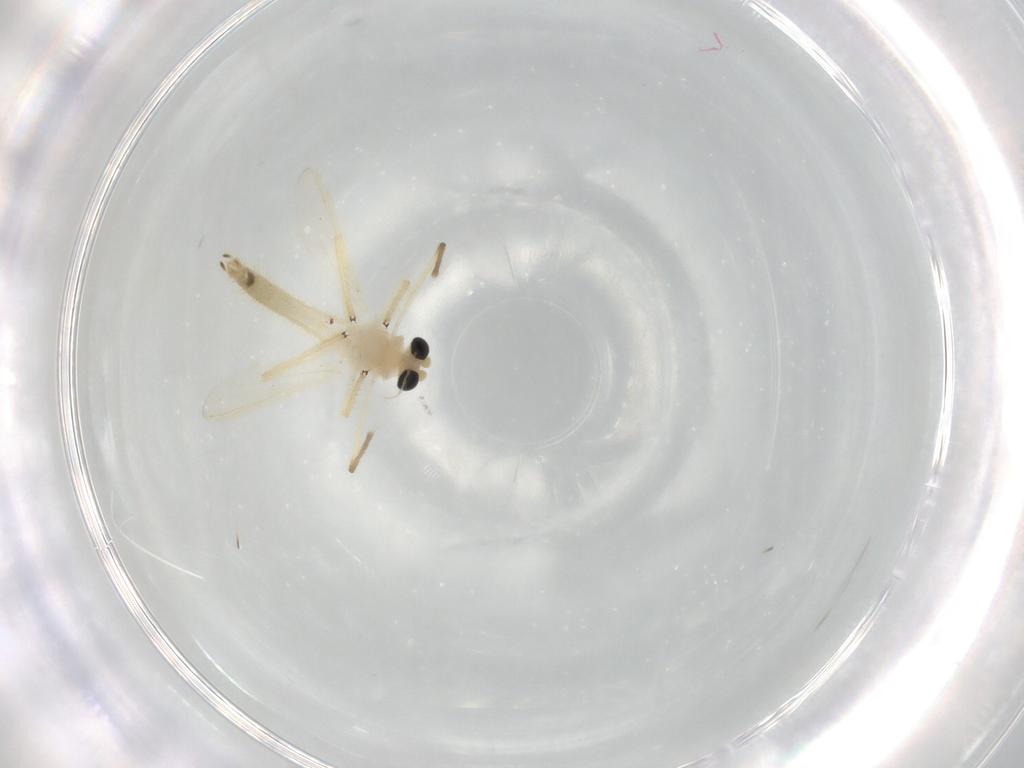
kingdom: Animalia
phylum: Arthropoda
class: Insecta
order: Diptera
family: Chironomidae
